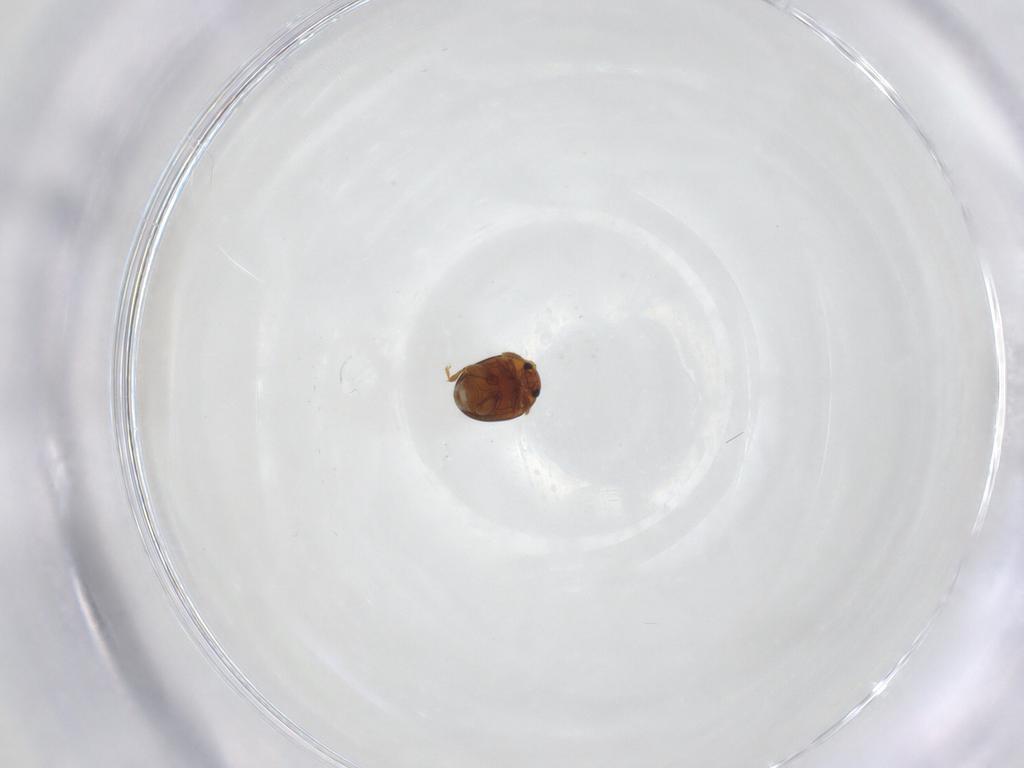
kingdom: Animalia
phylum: Arthropoda
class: Insecta
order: Coleoptera
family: Chrysomelidae
